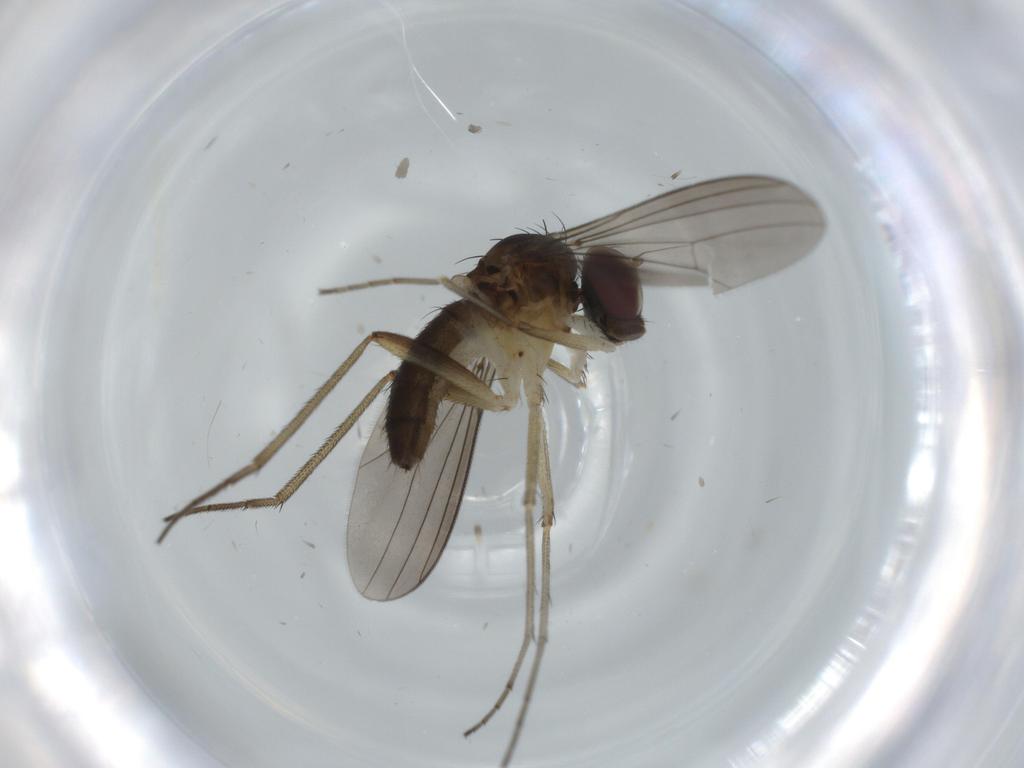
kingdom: Animalia
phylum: Arthropoda
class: Insecta
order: Diptera
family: Dolichopodidae
